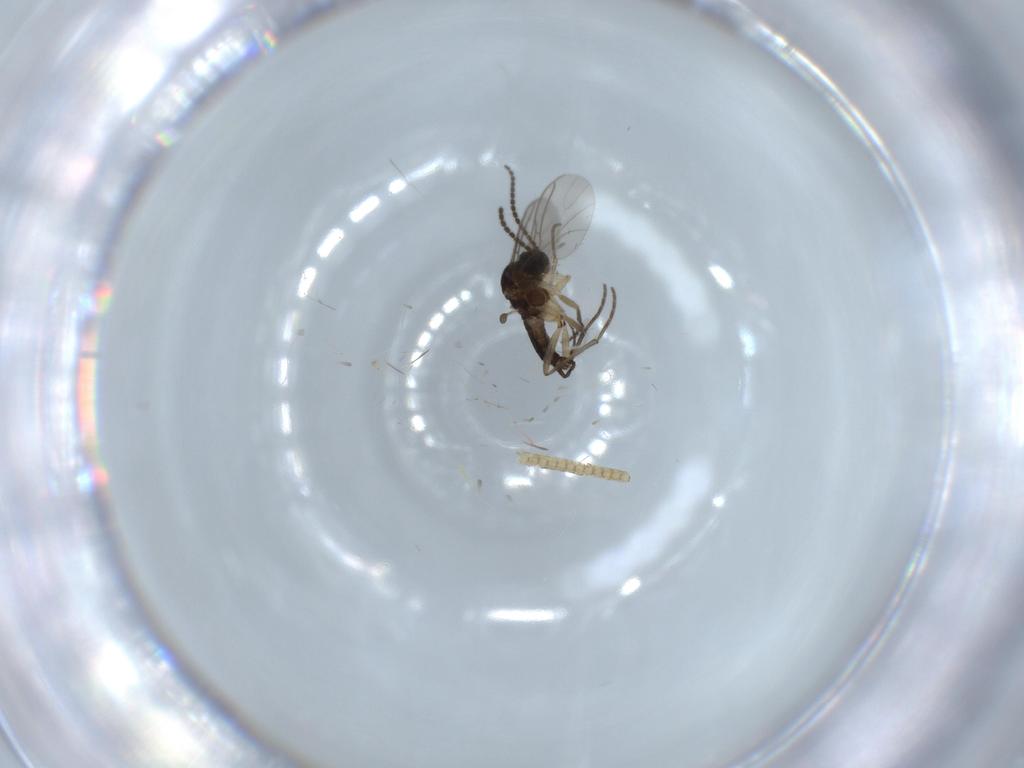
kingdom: Animalia
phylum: Arthropoda
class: Insecta
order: Diptera
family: Sciaridae
